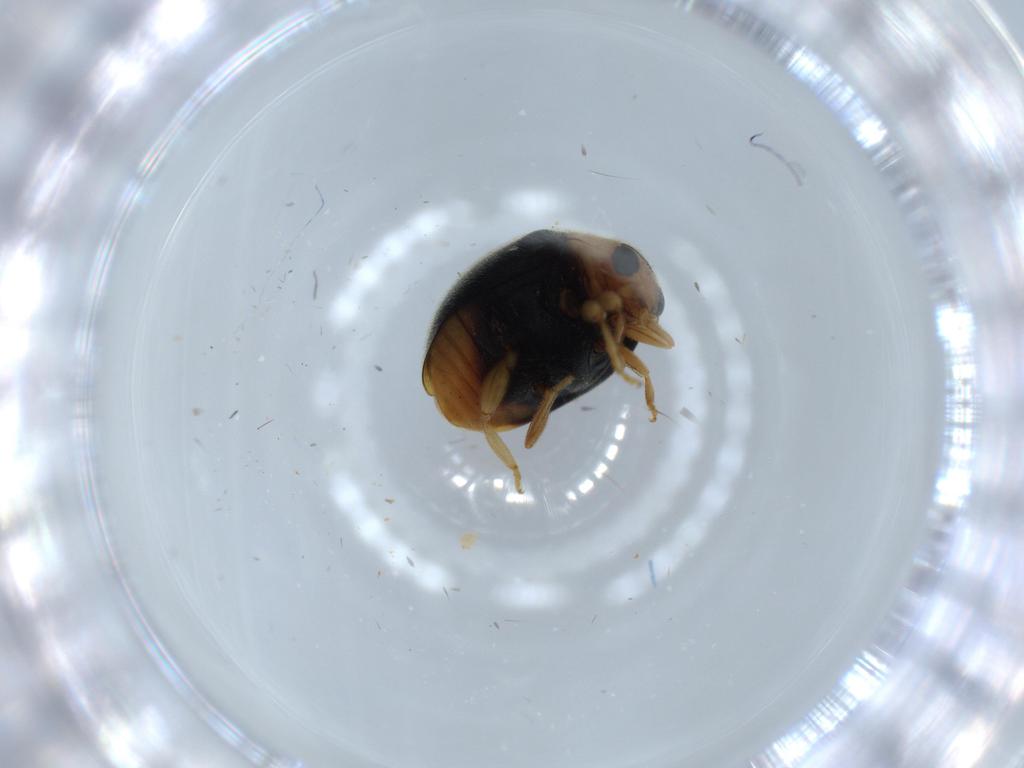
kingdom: Animalia
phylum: Arthropoda
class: Insecta
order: Coleoptera
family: Coccinellidae
